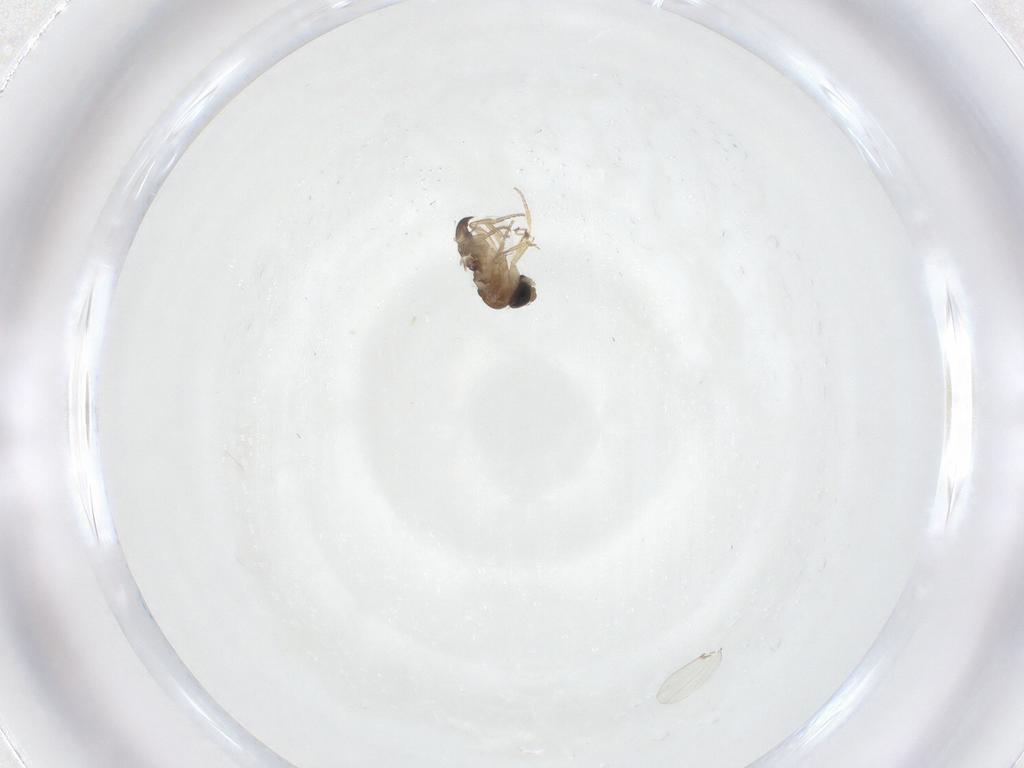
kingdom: Animalia
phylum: Arthropoda
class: Insecta
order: Diptera
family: Phoridae
